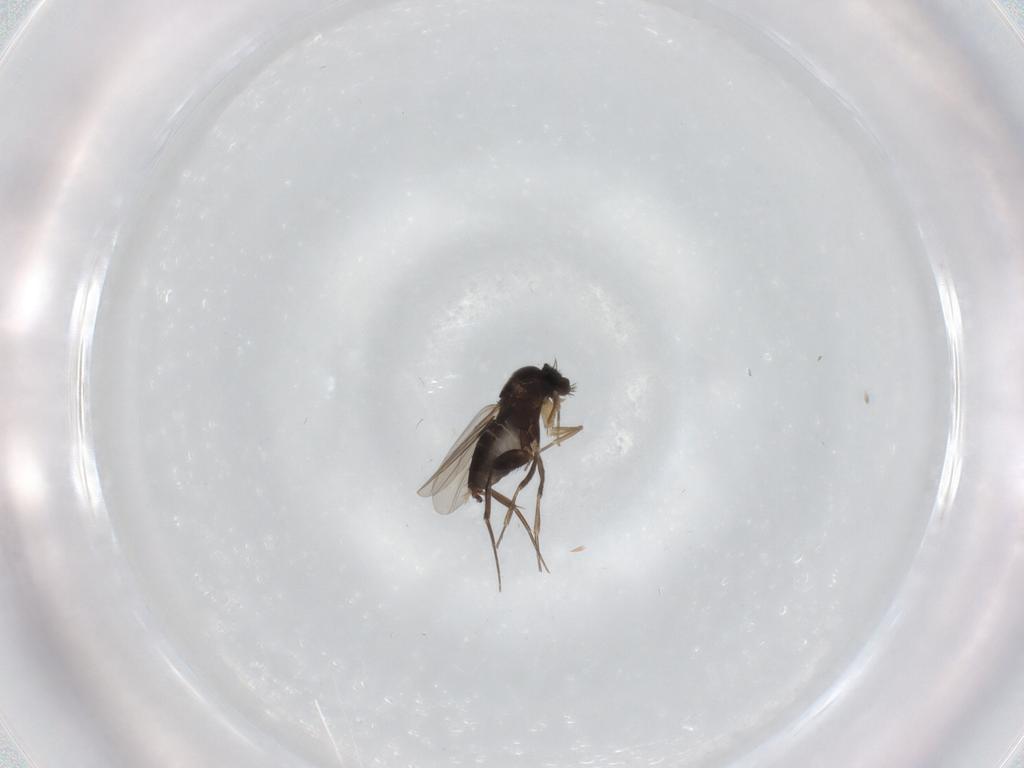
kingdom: Animalia
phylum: Arthropoda
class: Insecta
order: Diptera
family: Phoridae
